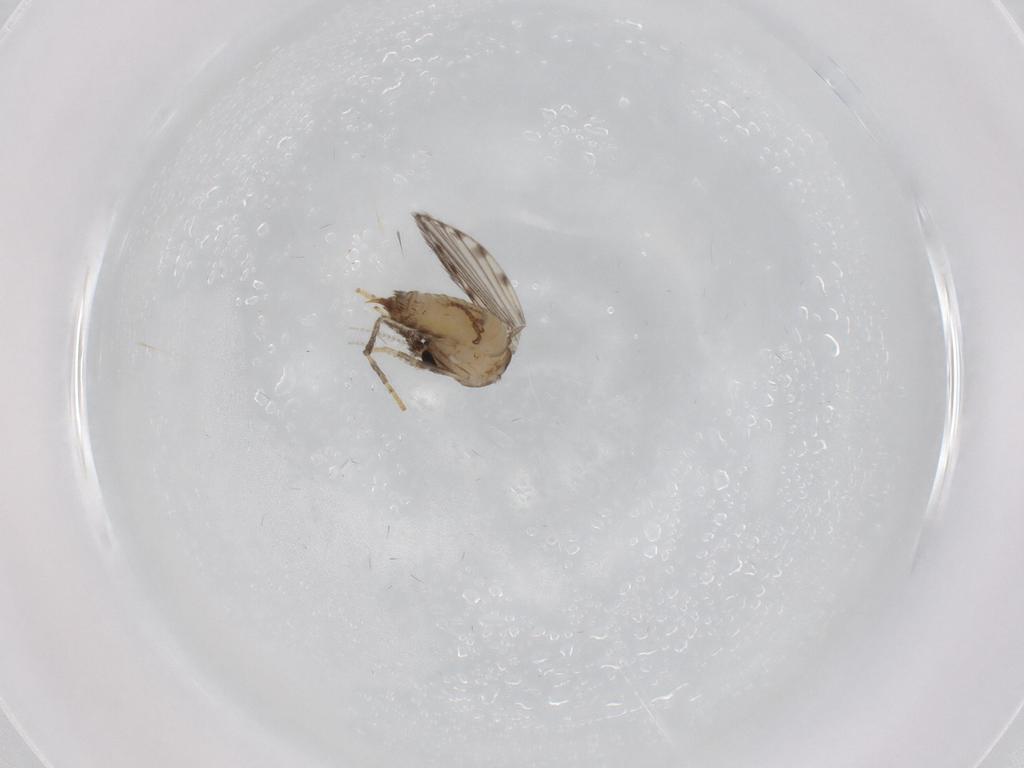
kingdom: Animalia
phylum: Arthropoda
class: Insecta
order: Diptera
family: Psychodidae
